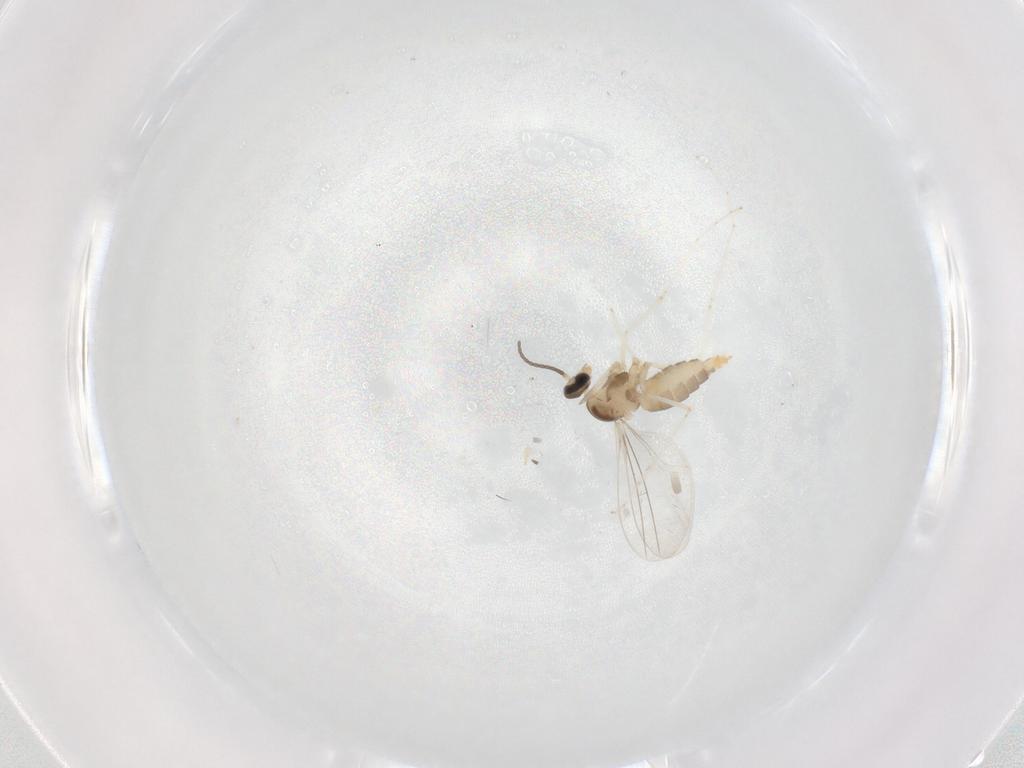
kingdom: Animalia
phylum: Arthropoda
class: Insecta
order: Diptera
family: Cecidomyiidae
